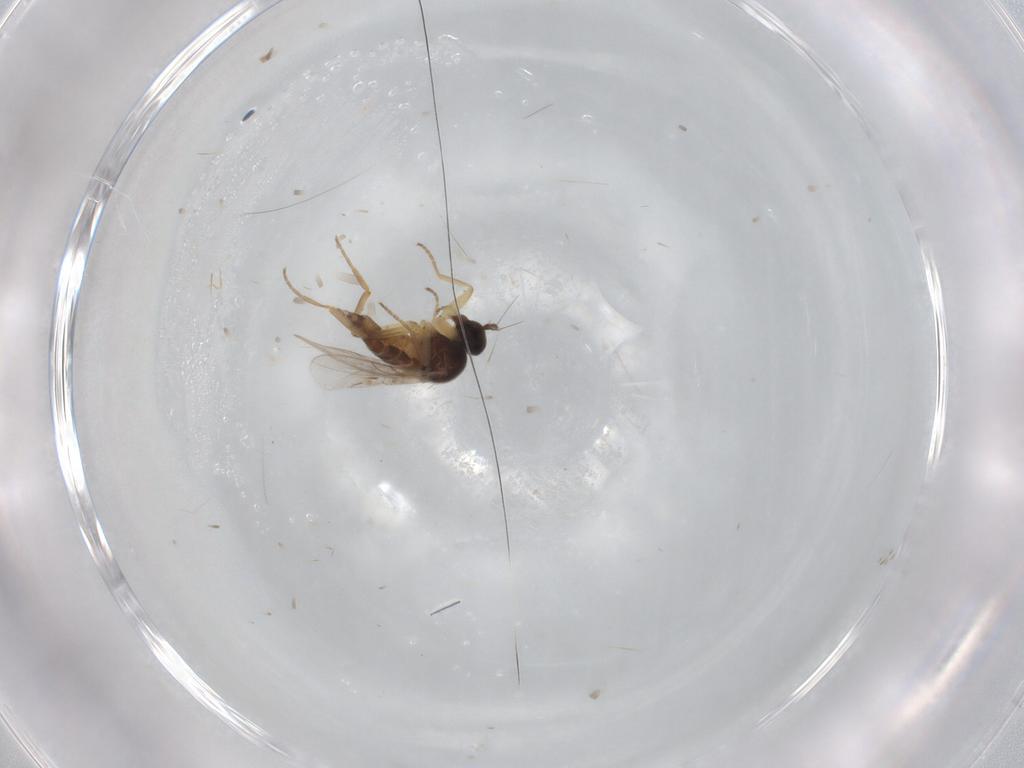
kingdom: Animalia
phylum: Arthropoda
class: Insecta
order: Diptera
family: Hybotidae
